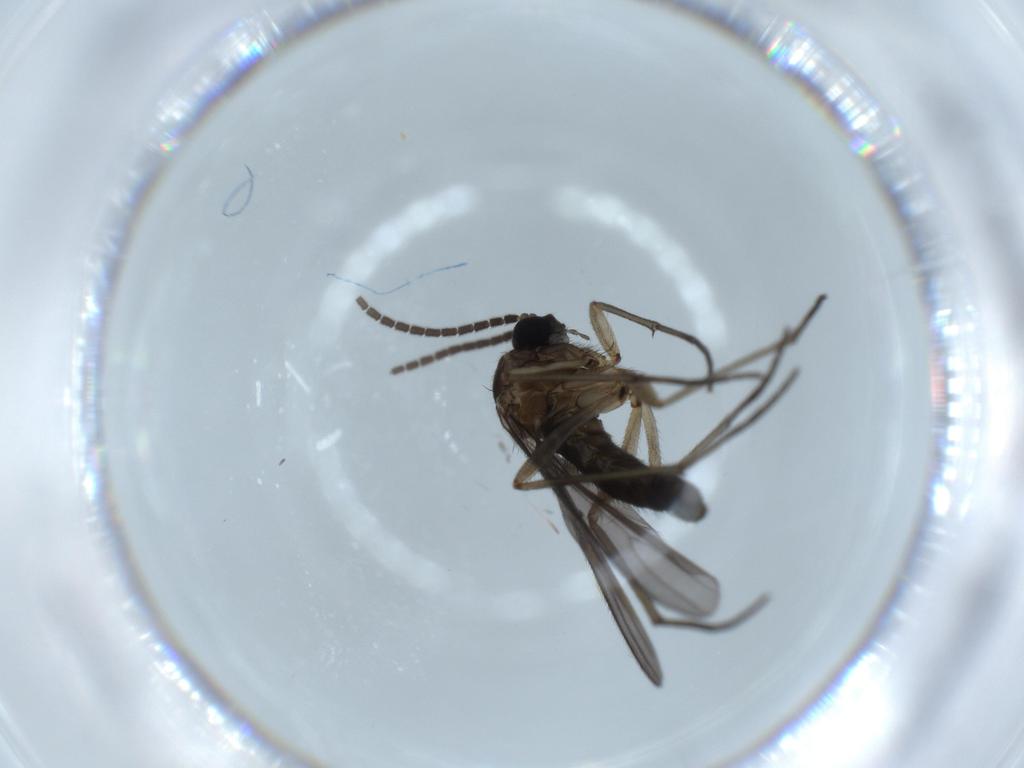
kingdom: Animalia
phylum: Arthropoda
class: Insecta
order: Diptera
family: Sciaridae
